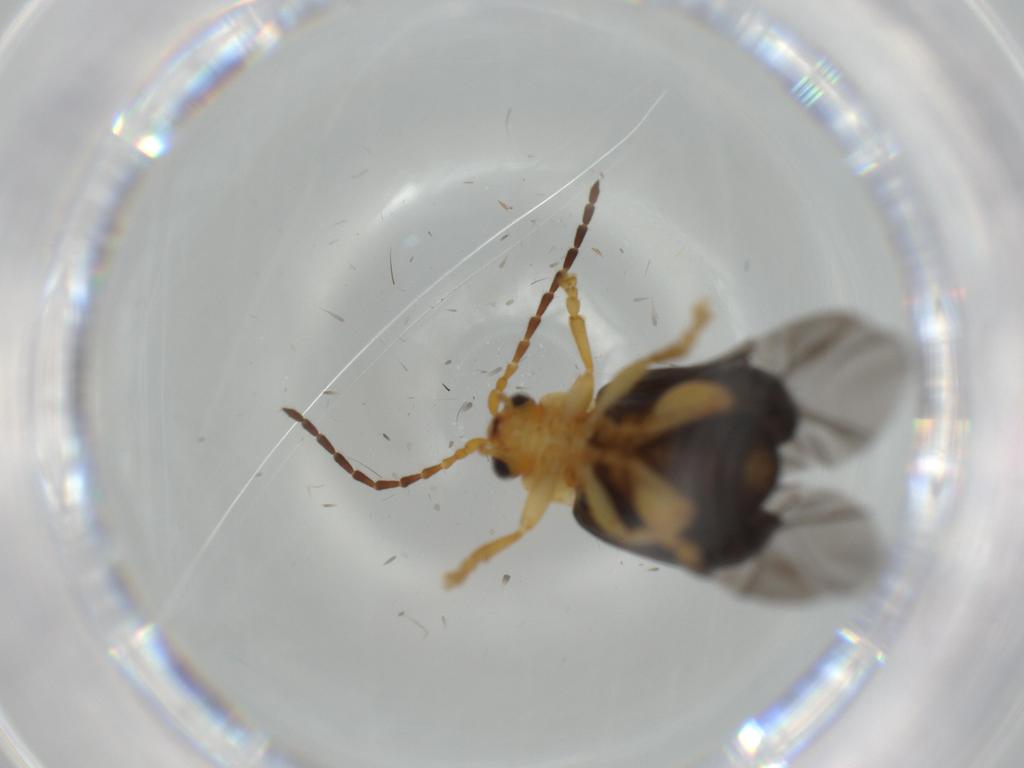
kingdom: Animalia
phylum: Arthropoda
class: Insecta
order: Coleoptera
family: Chrysomelidae
